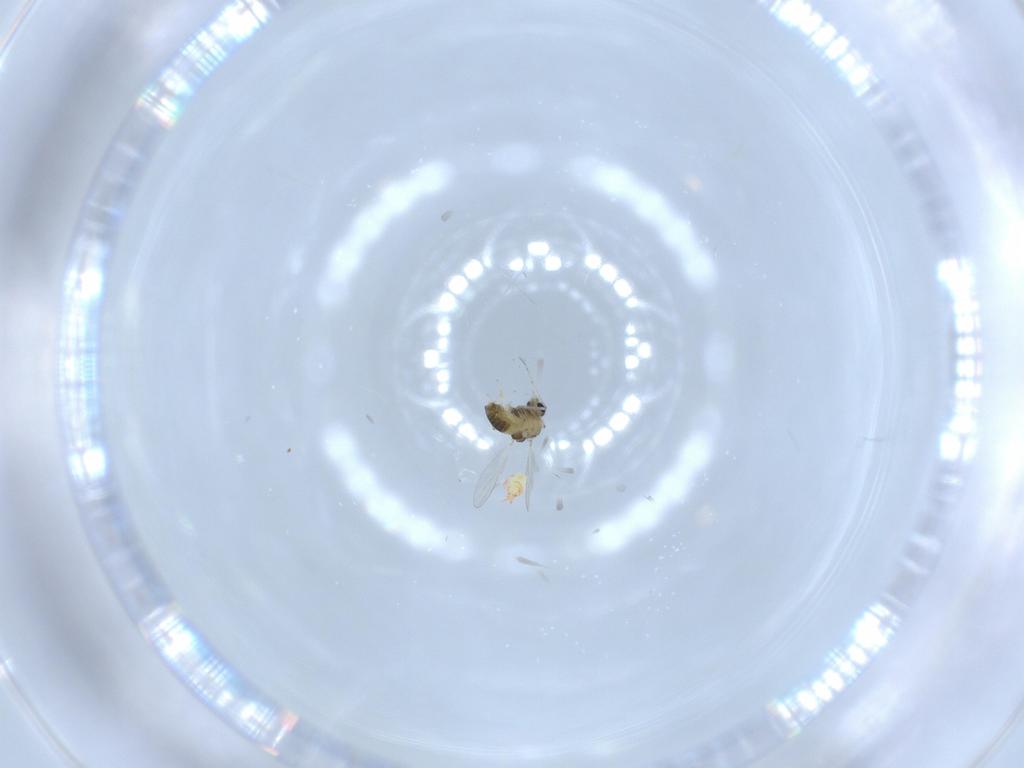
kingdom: Animalia
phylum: Arthropoda
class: Insecta
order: Diptera
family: Chironomidae
